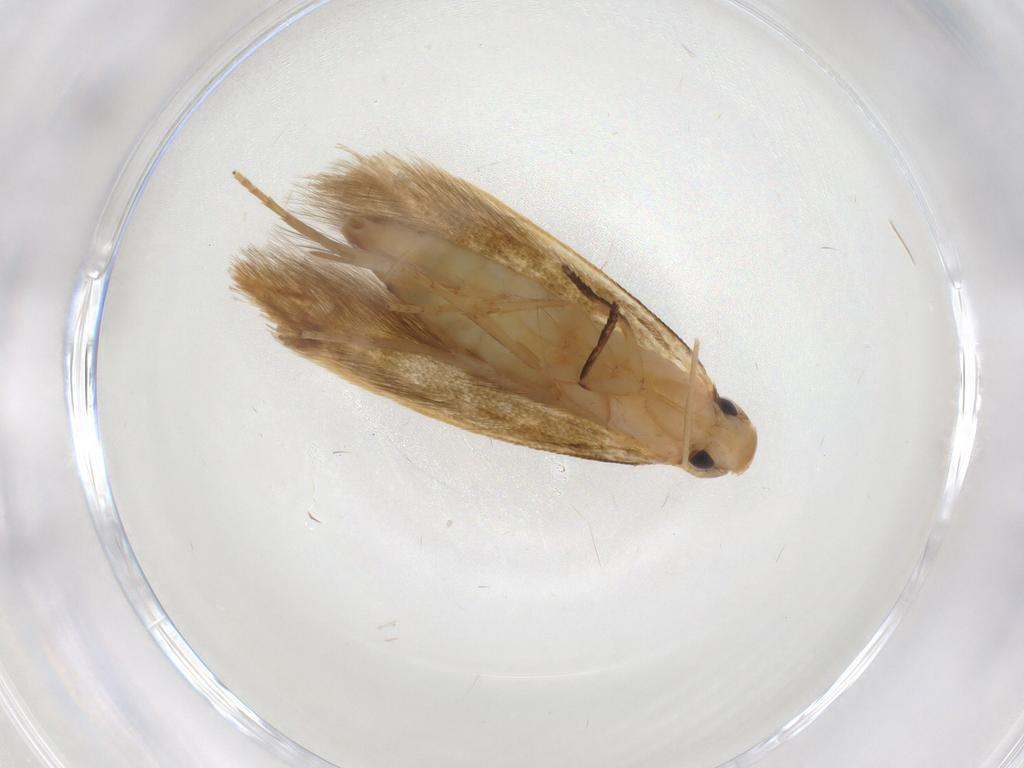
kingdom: Animalia
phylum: Arthropoda
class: Insecta
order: Lepidoptera
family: Tineidae
